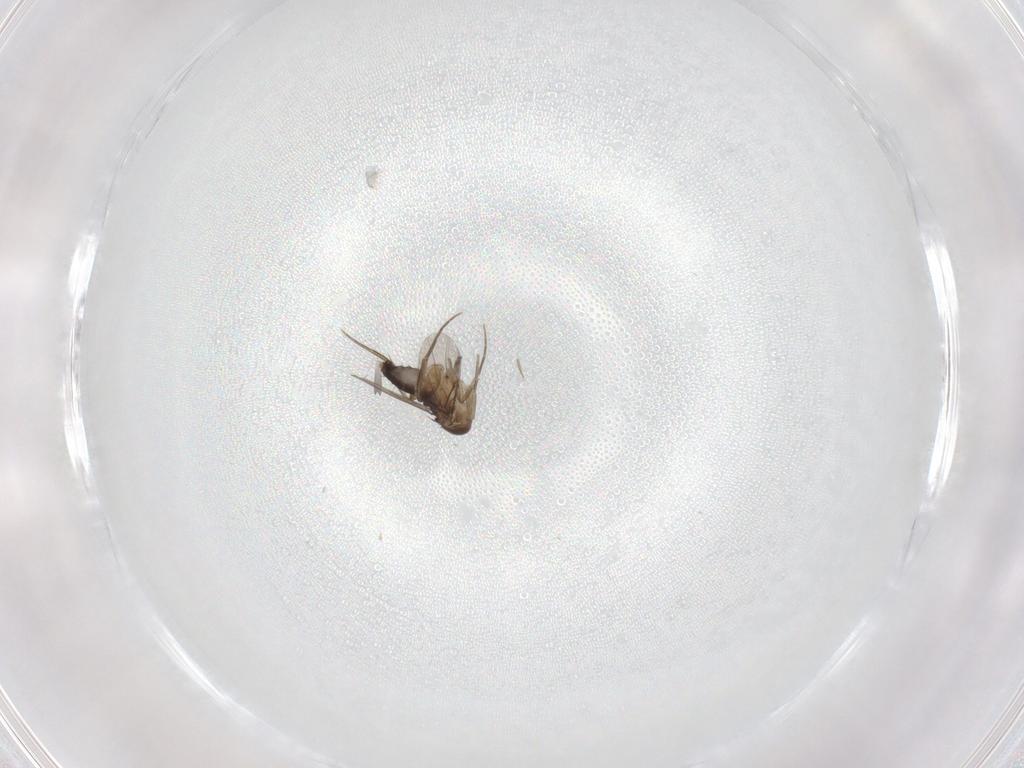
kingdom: Animalia
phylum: Arthropoda
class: Insecta
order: Diptera
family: Phoridae
